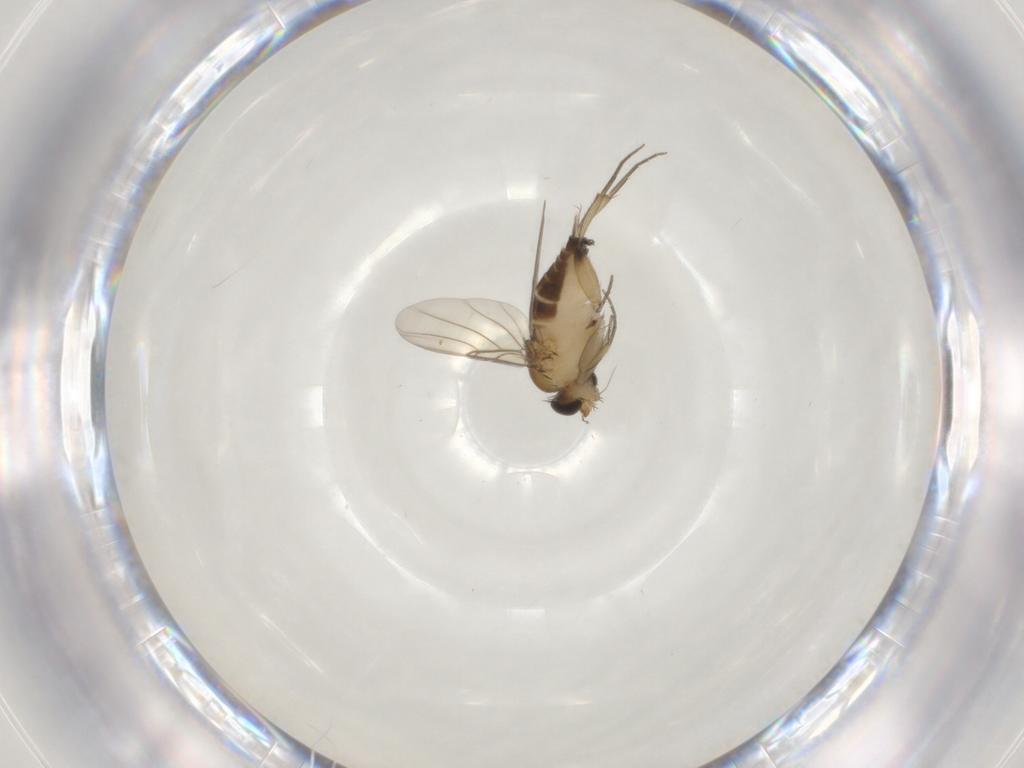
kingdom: Animalia
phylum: Arthropoda
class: Insecta
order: Diptera
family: Phoridae
